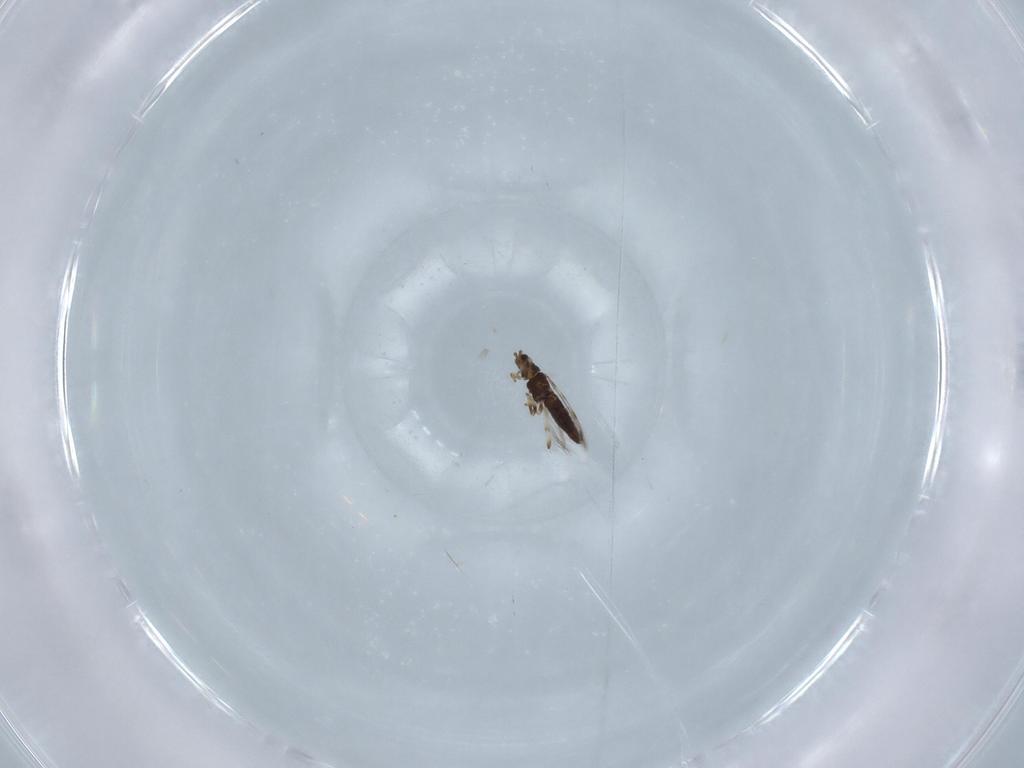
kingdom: Animalia
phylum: Arthropoda
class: Insecta
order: Thysanoptera
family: Thripidae
